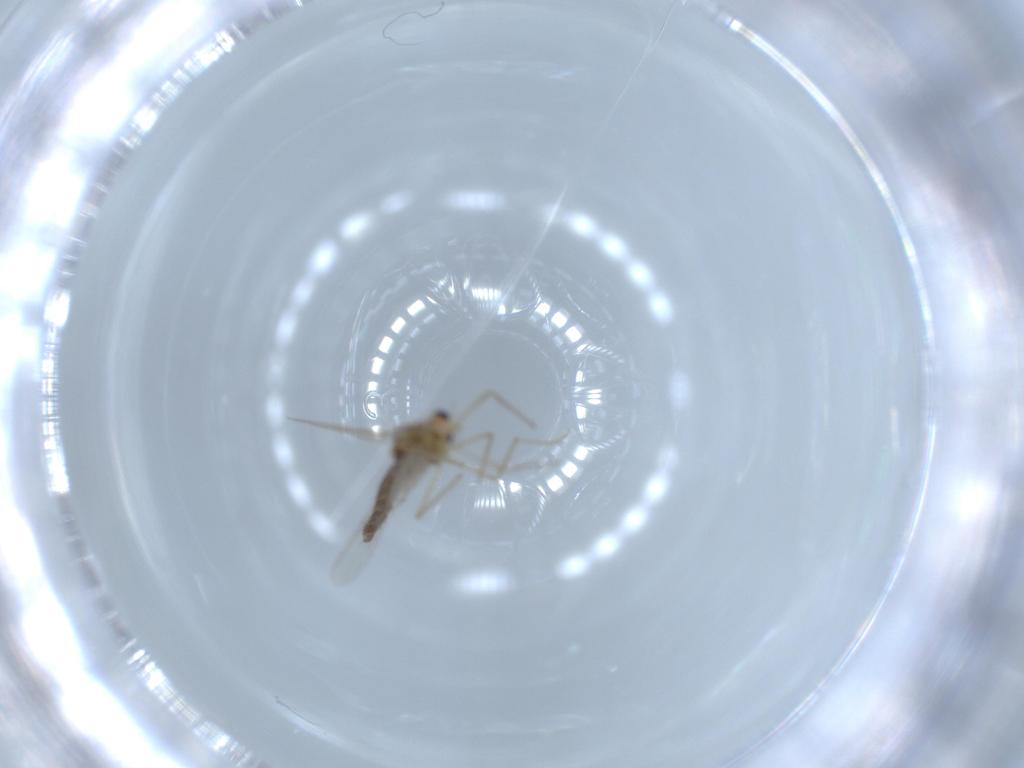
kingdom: Animalia
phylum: Arthropoda
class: Insecta
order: Diptera
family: Chironomidae
